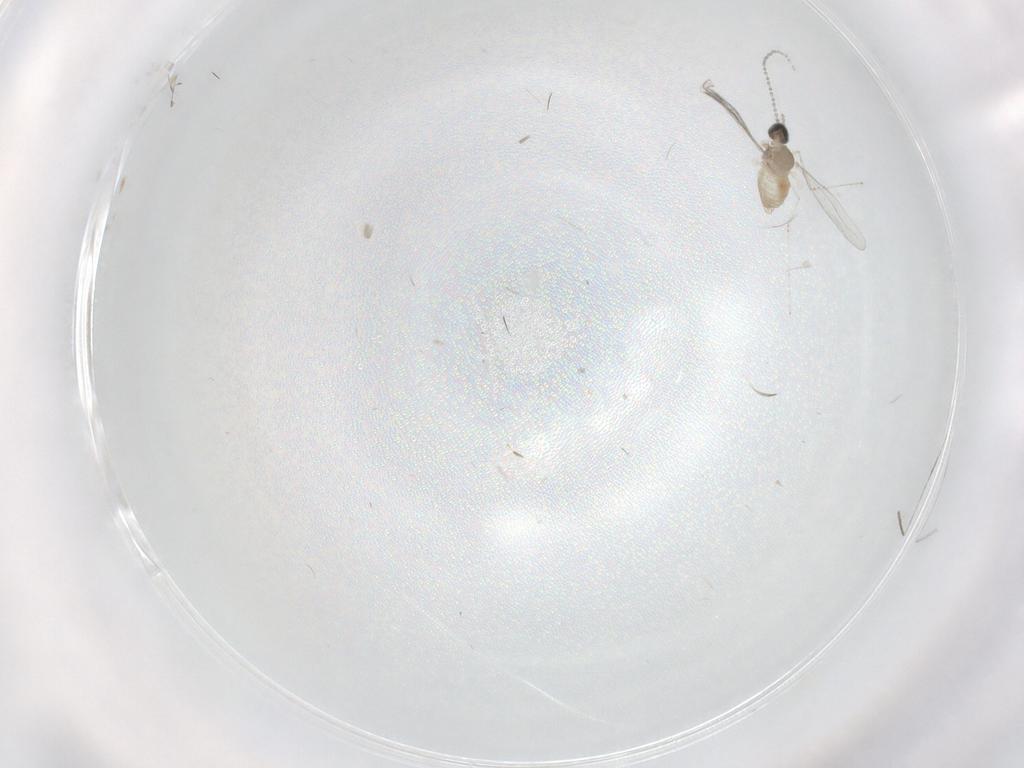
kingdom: Animalia
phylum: Arthropoda
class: Insecta
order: Diptera
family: Cecidomyiidae
